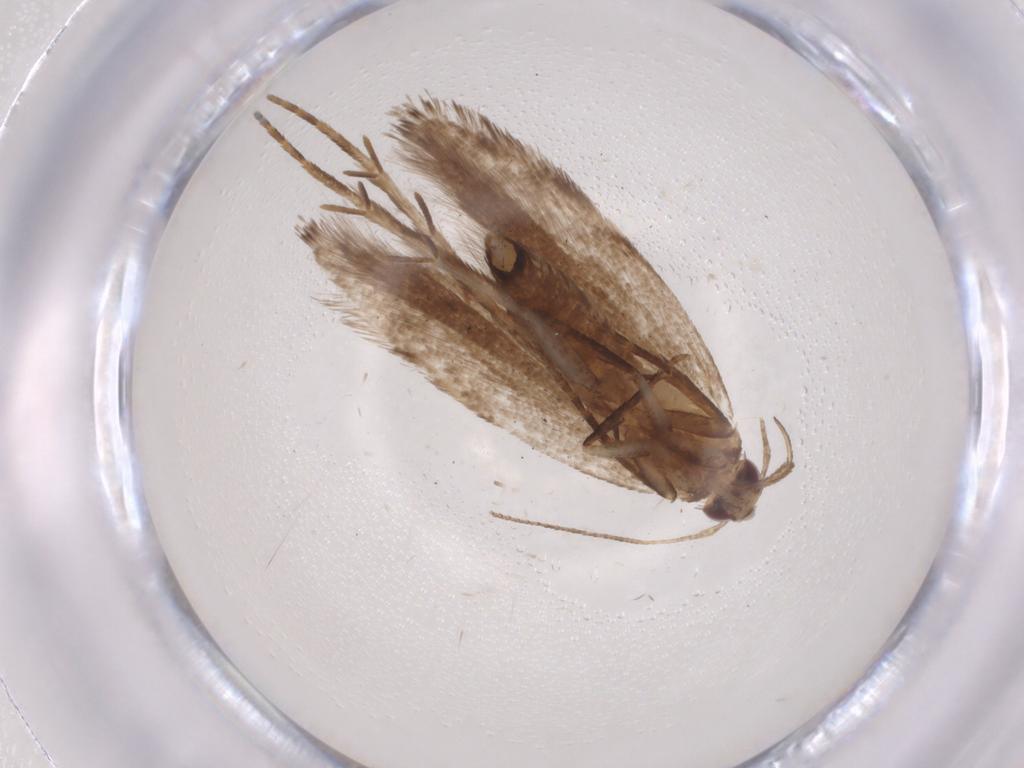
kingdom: Animalia
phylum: Arthropoda
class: Insecta
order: Lepidoptera
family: Gelechiidae
